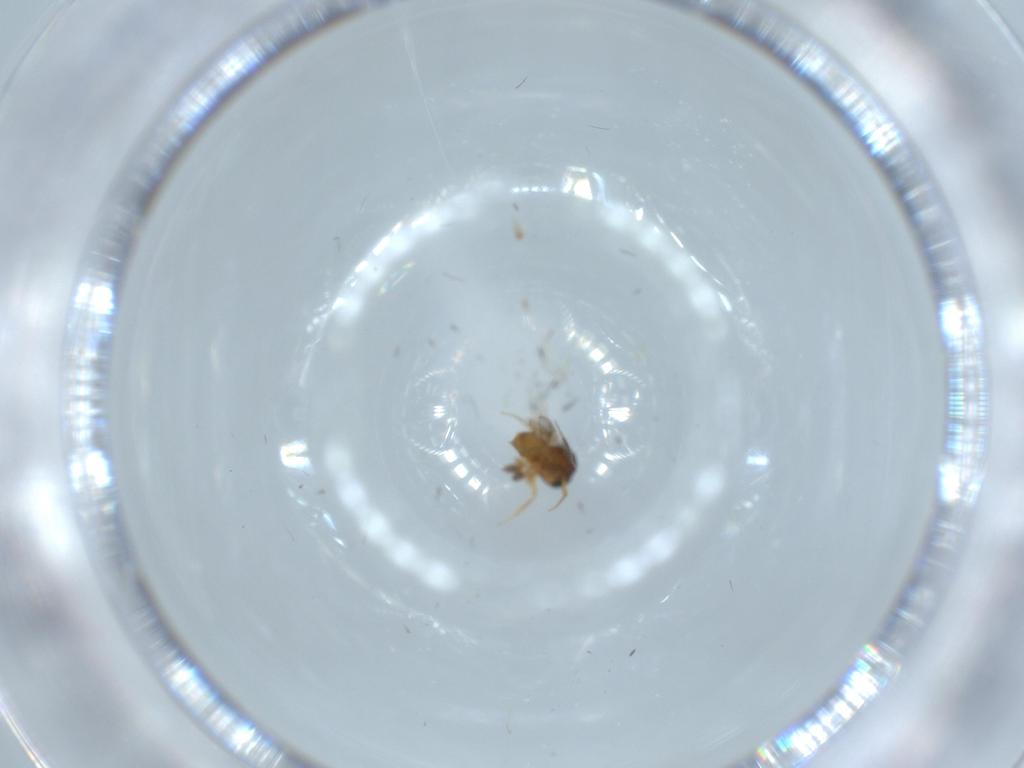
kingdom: Animalia
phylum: Arthropoda
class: Insecta
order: Hymenoptera
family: Scelionidae
